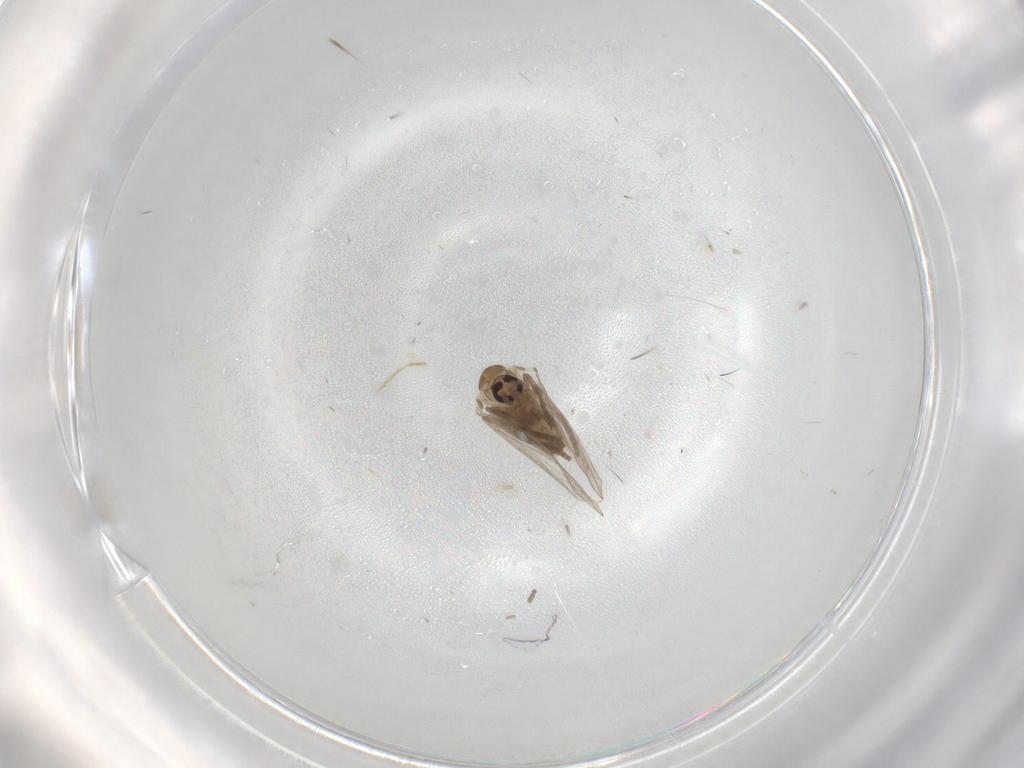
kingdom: Animalia
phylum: Arthropoda
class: Insecta
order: Diptera
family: Psychodidae
